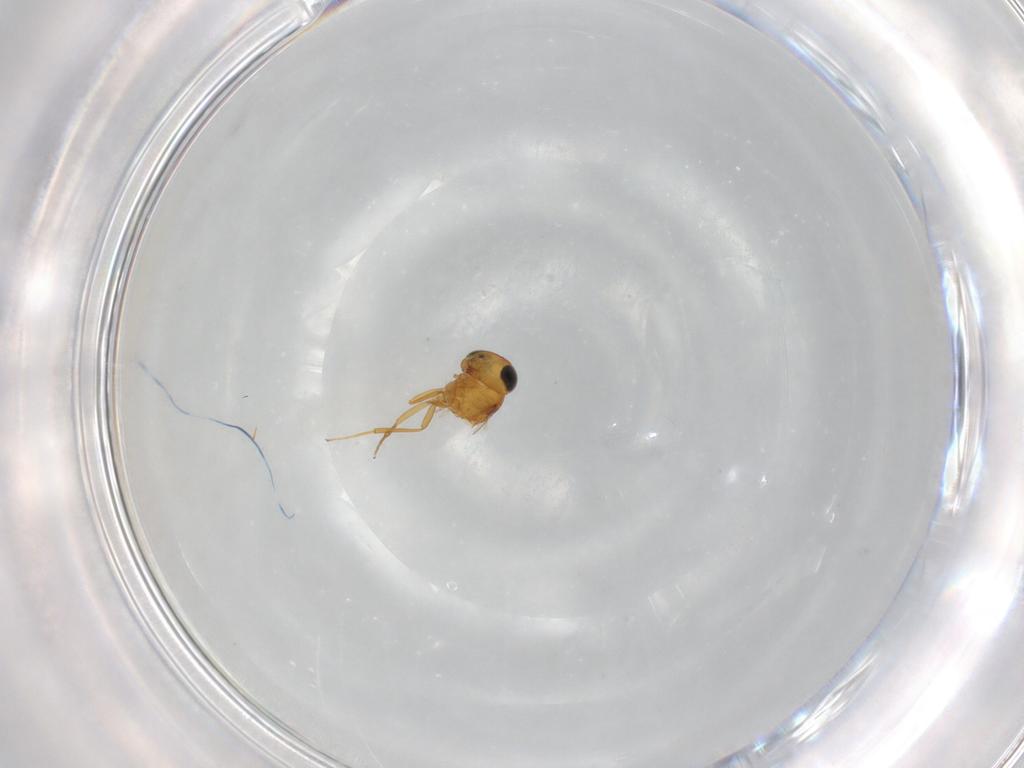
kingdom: Animalia
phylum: Arthropoda
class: Insecta
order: Hymenoptera
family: Scelionidae
